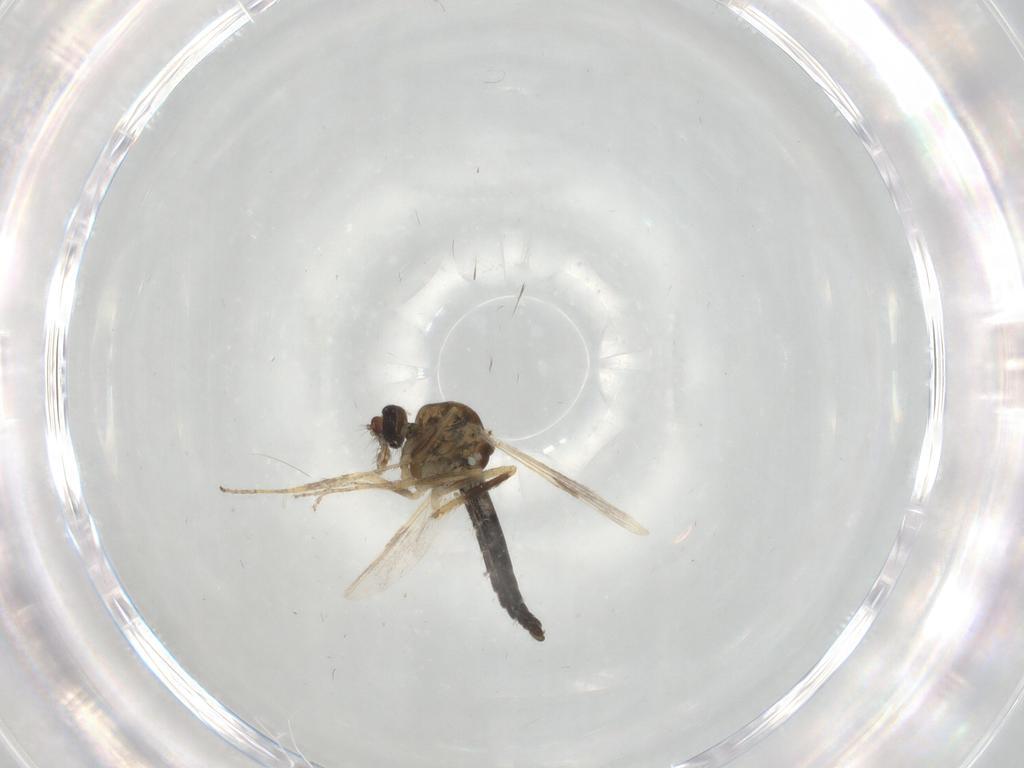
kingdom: Animalia
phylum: Arthropoda
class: Insecta
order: Diptera
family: Ceratopogonidae
